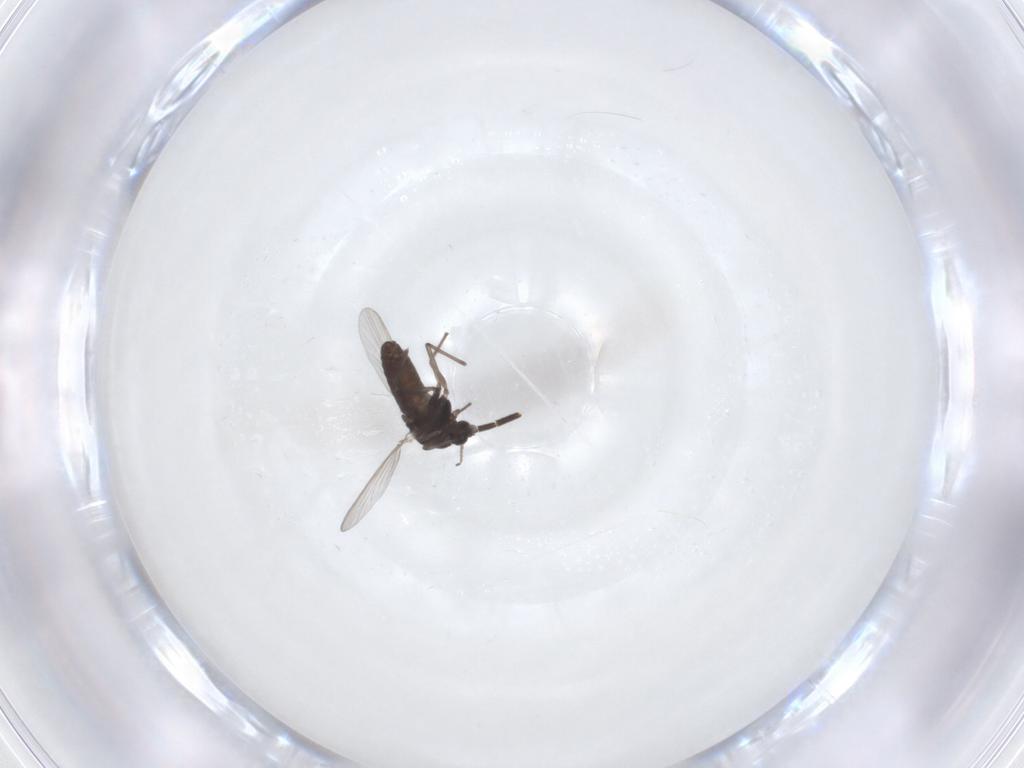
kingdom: Animalia
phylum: Arthropoda
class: Insecta
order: Diptera
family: Chironomidae
